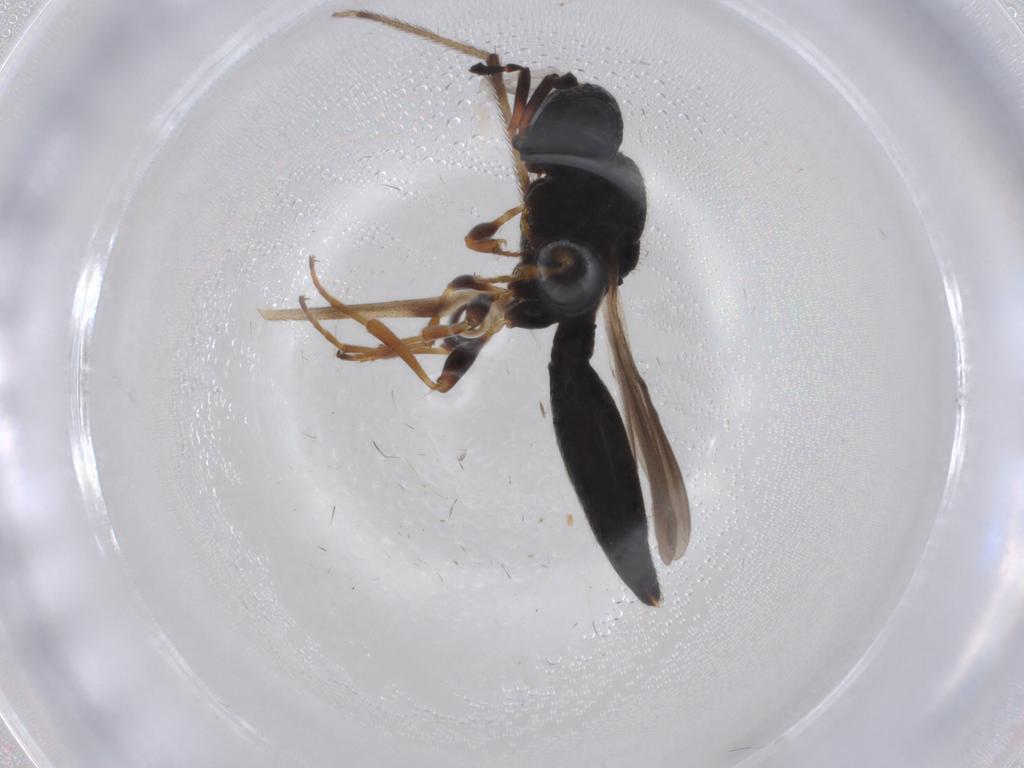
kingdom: Animalia
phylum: Arthropoda
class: Insecta
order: Hymenoptera
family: Scelionidae
